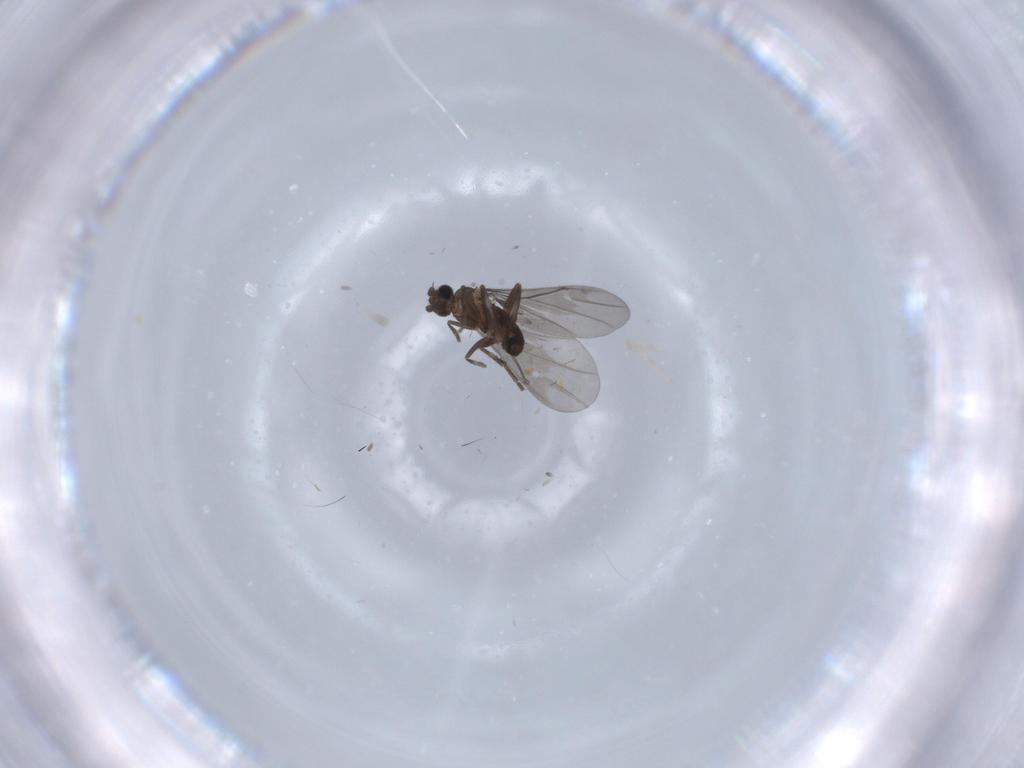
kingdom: Animalia
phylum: Arthropoda
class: Insecta
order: Diptera
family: Phoridae
